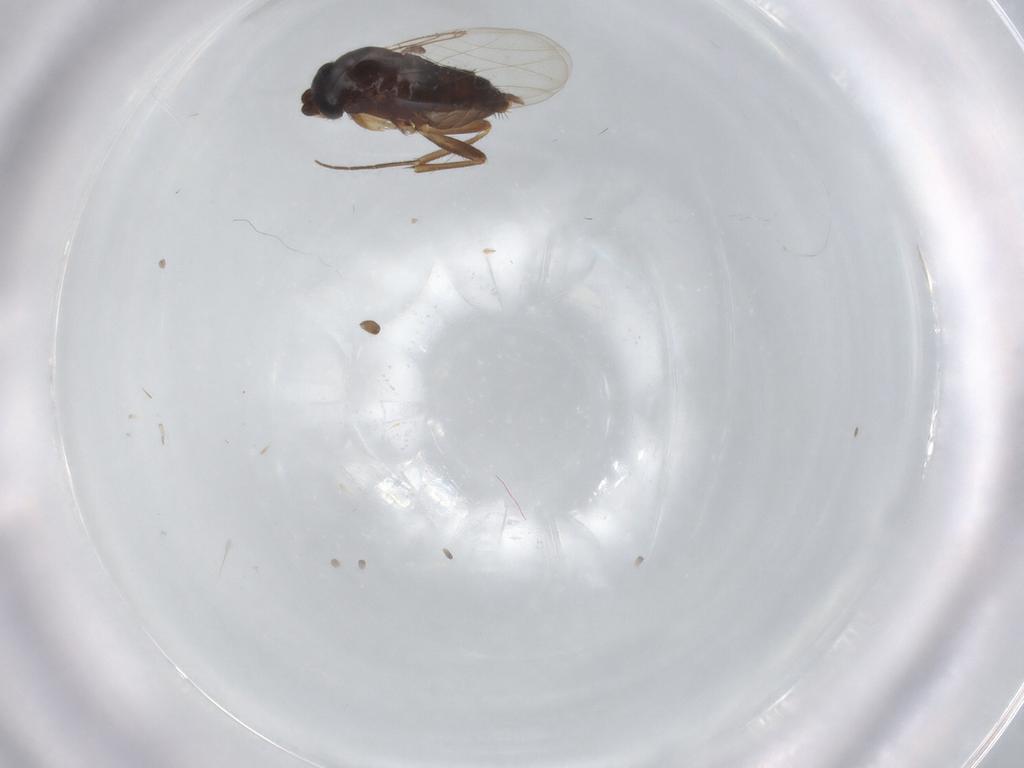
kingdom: Animalia
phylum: Arthropoda
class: Insecta
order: Diptera
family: Phoridae
